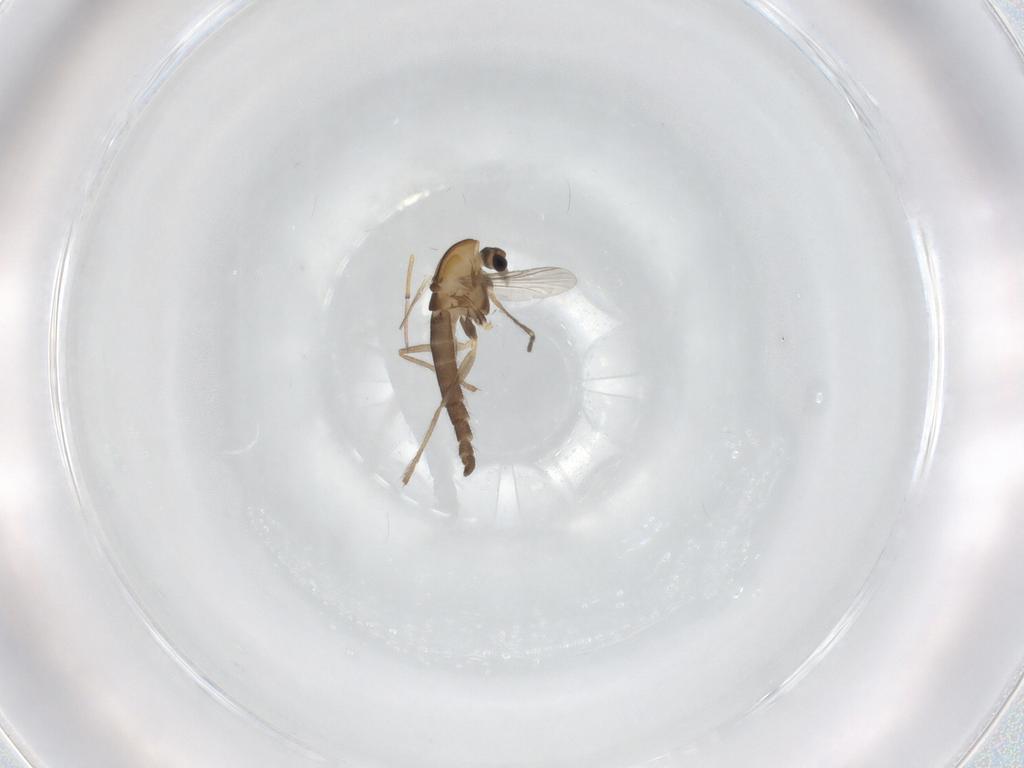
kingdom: Animalia
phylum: Arthropoda
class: Insecta
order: Diptera
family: Chironomidae
